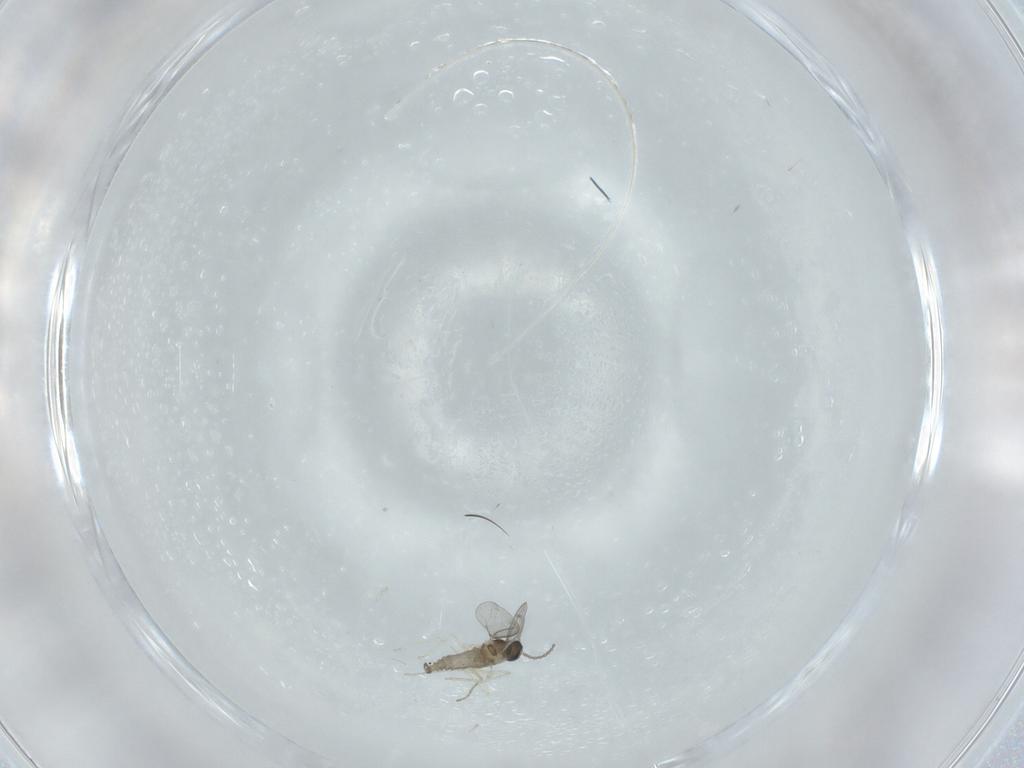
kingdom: Animalia
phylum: Arthropoda
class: Insecta
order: Diptera
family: Cecidomyiidae
